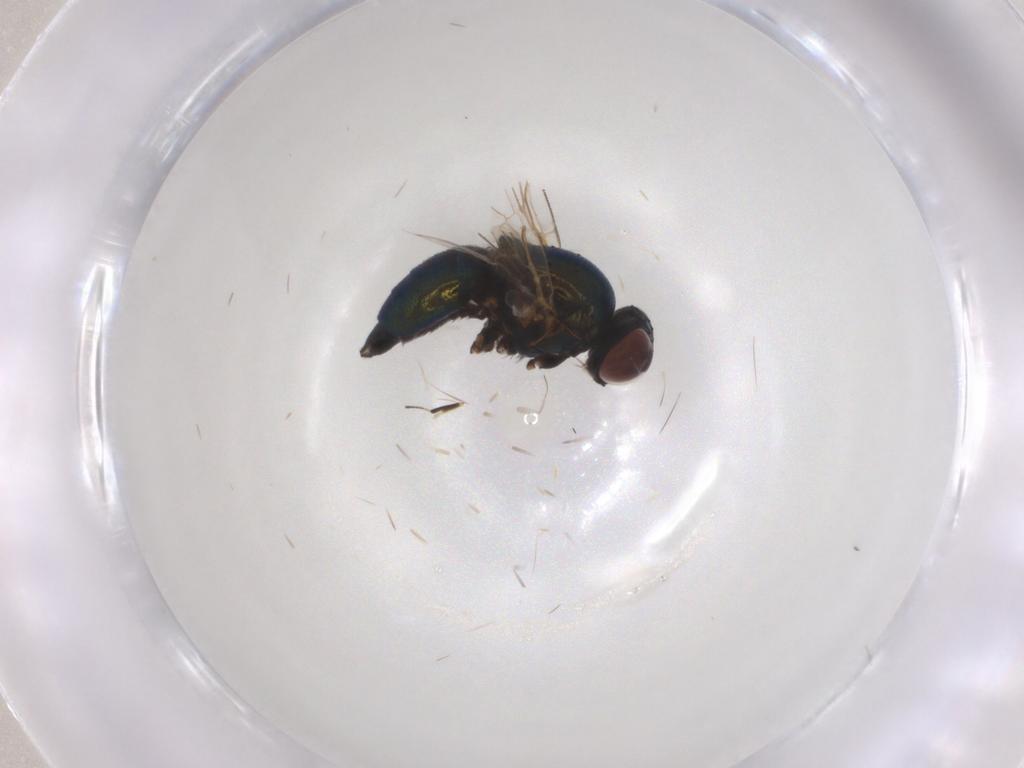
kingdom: Animalia
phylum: Arthropoda
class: Insecta
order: Diptera
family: Agromyzidae
